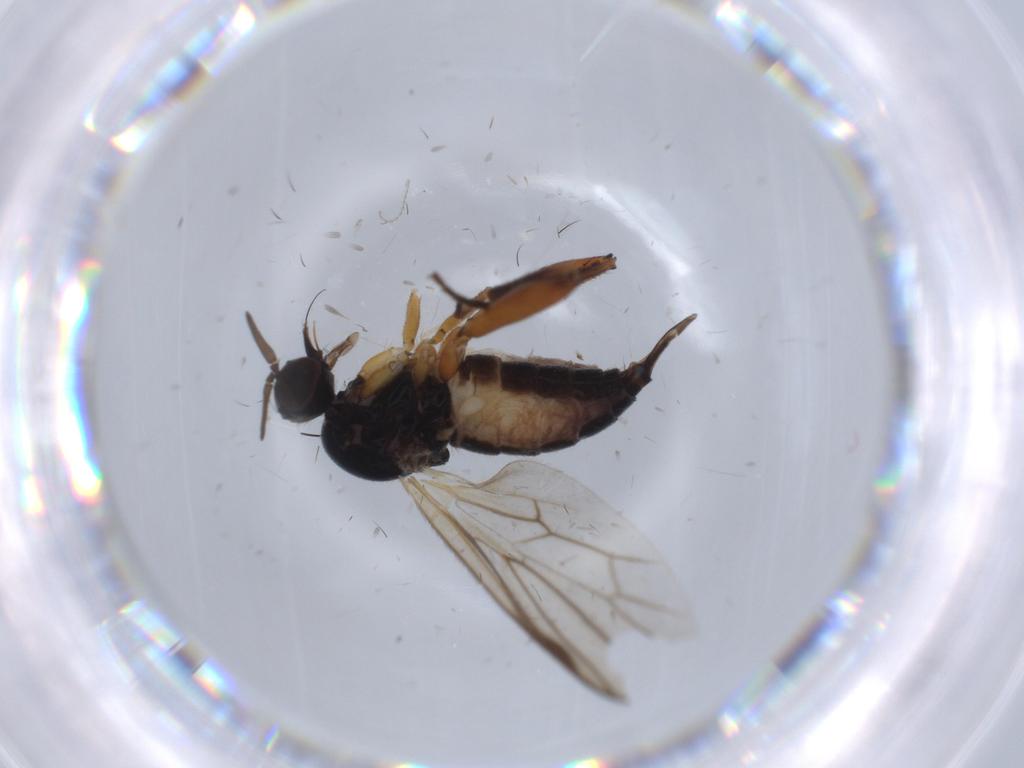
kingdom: Animalia
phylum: Arthropoda
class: Insecta
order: Diptera
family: Hybotidae
